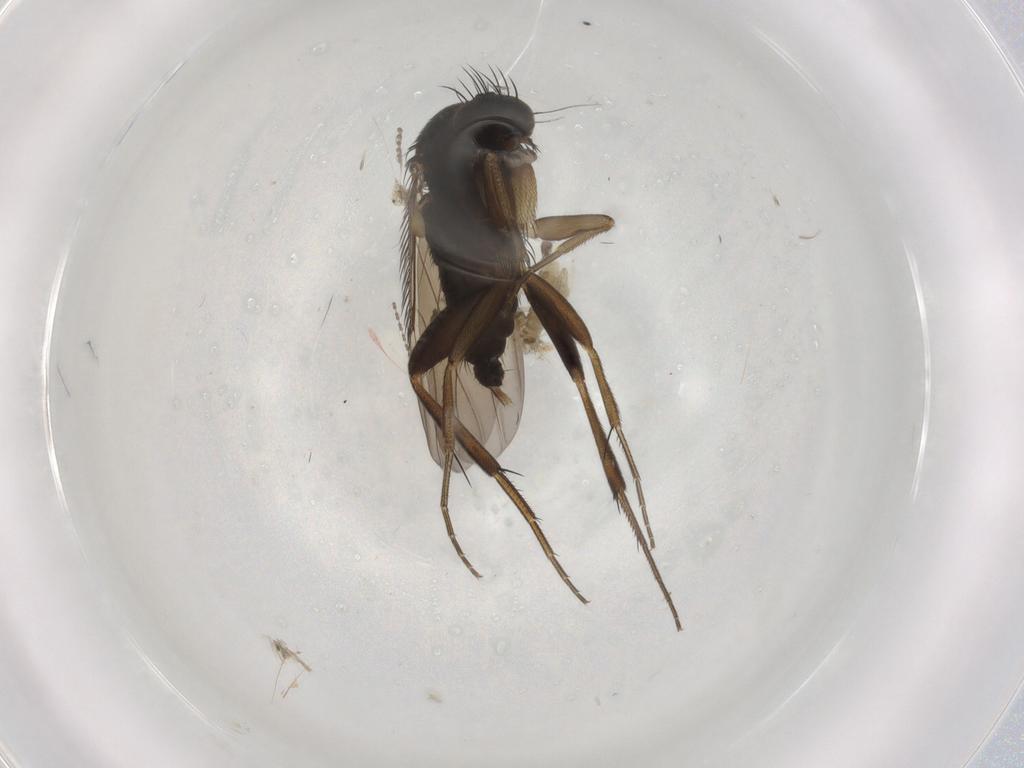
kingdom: Animalia
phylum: Arthropoda
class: Insecta
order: Diptera
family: Phoridae
